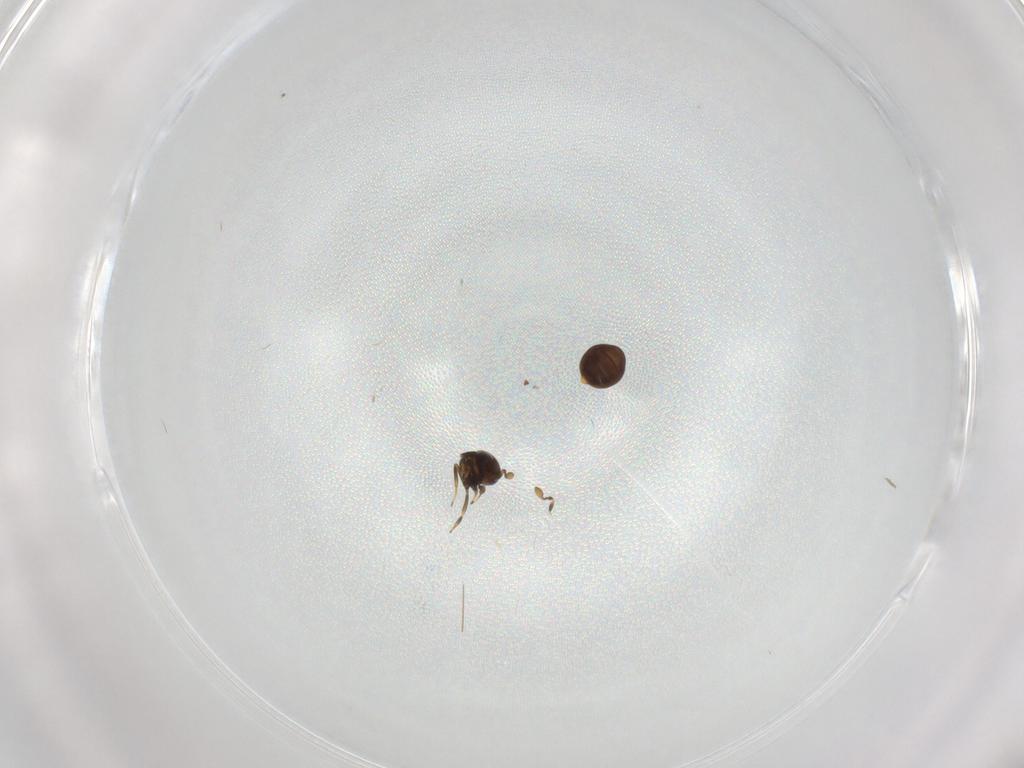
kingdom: Animalia
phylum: Arthropoda
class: Insecta
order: Hymenoptera
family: Scelionidae
